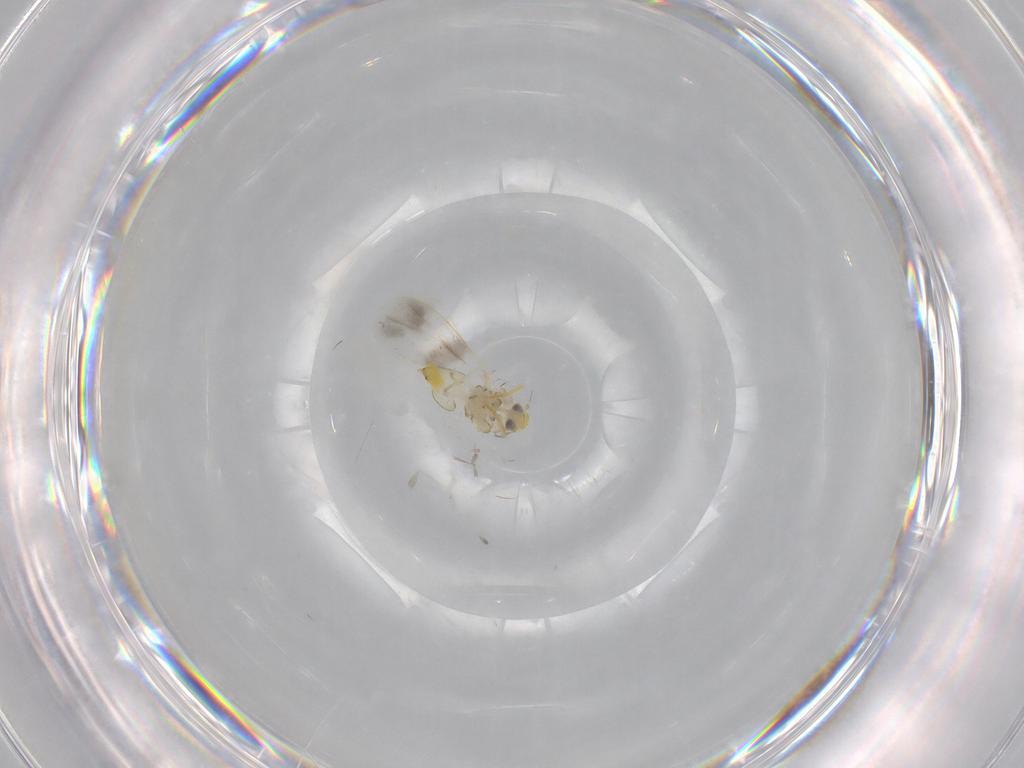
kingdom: Animalia
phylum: Arthropoda
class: Insecta
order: Hemiptera
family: Aleyrodidae
